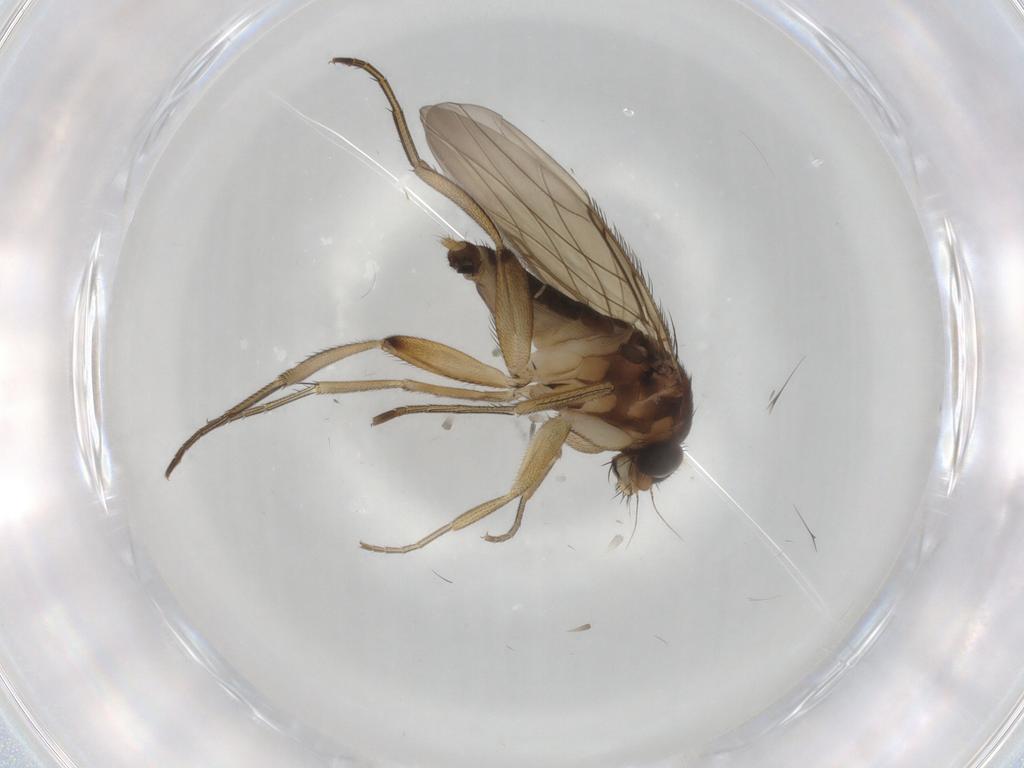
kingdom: Animalia
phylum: Arthropoda
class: Insecta
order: Diptera
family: Phoridae
